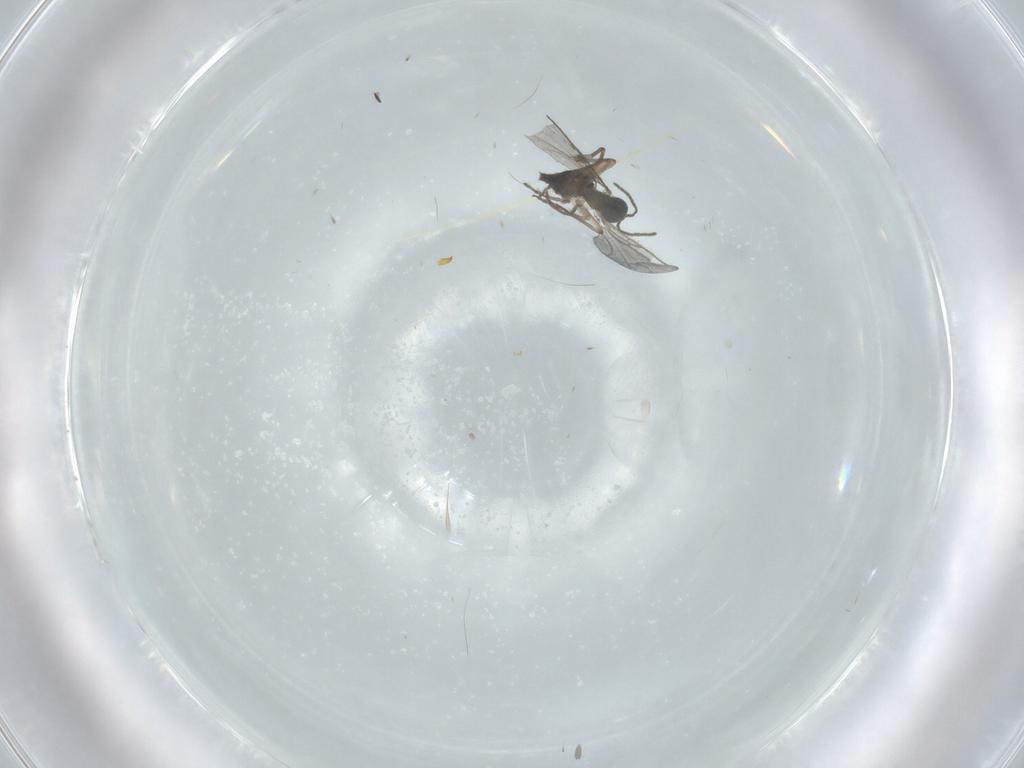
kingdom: Animalia
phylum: Arthropoda
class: Insecta
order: Diptera
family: Sciaridae
